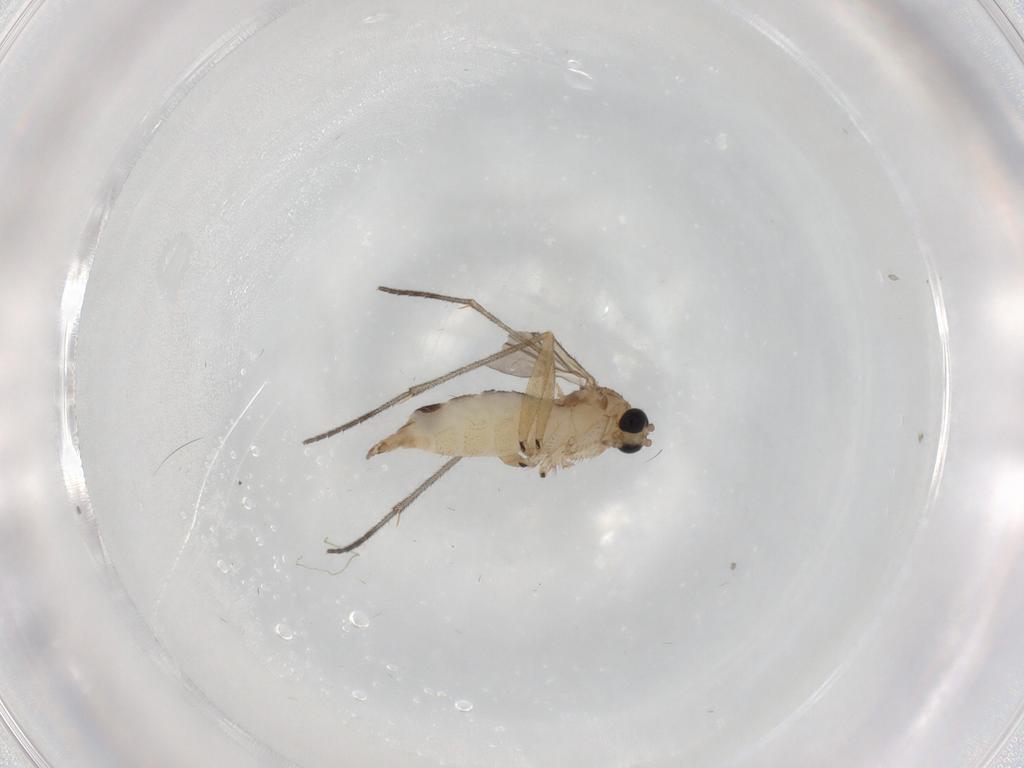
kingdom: Animalia
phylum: Arthropoda
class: Insecta
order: Diptera
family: Sciaridae
